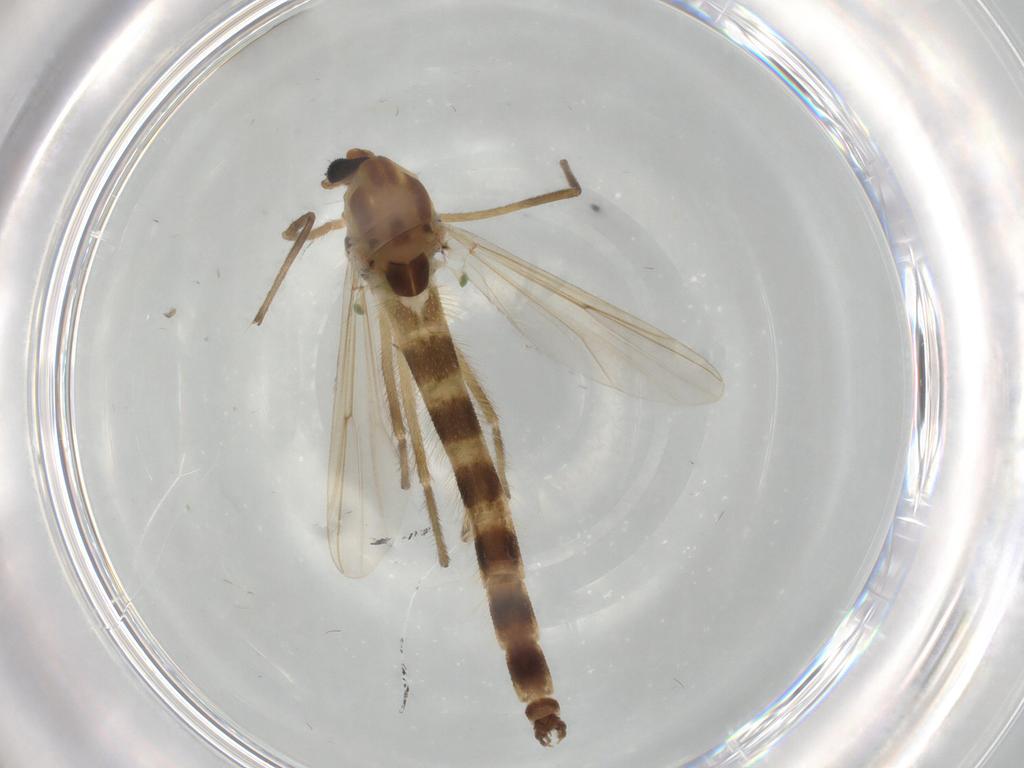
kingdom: Animalia
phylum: Arthropoda
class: Insecta
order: Diptera
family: Chironomidae
